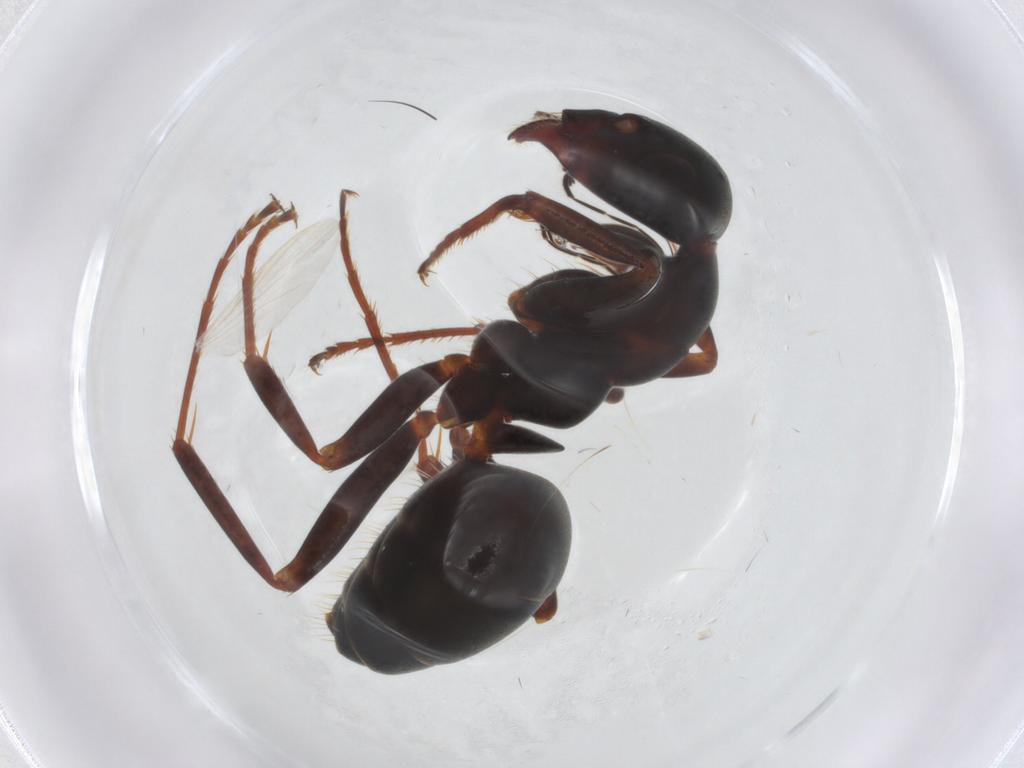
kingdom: Animalia
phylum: Arthropoda
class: Insecta
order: Hymenoptera
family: Formicidae
